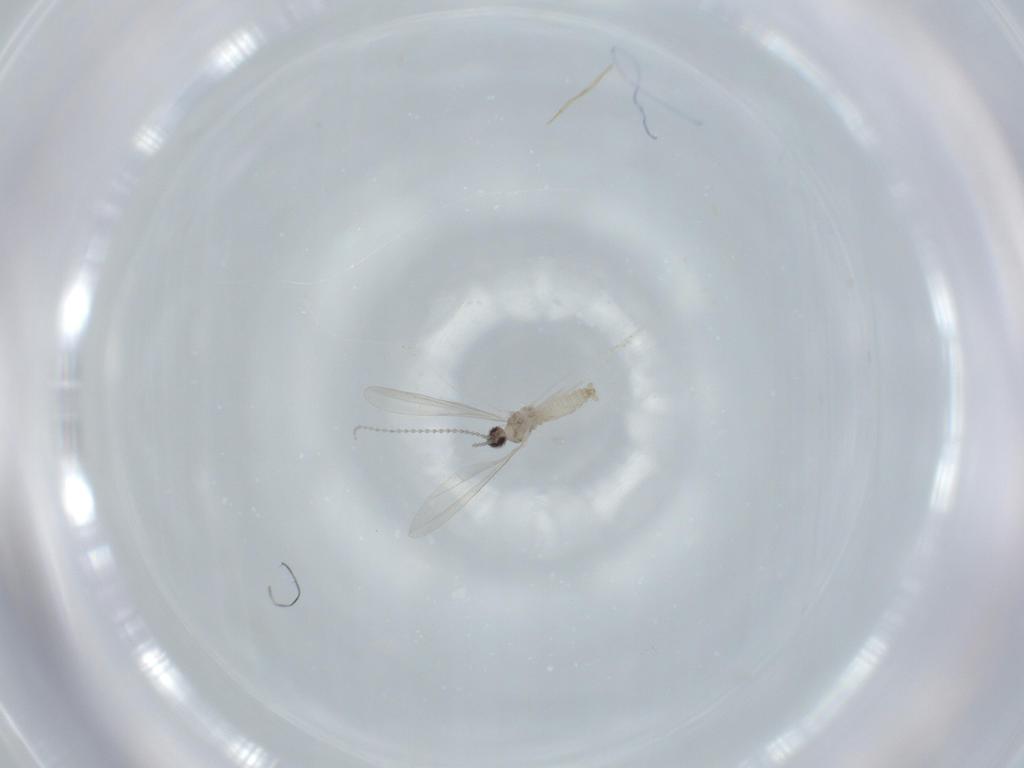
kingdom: Animalia
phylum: Arthropoda
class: Insecta
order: Diptera
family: Cecidomyiidae
